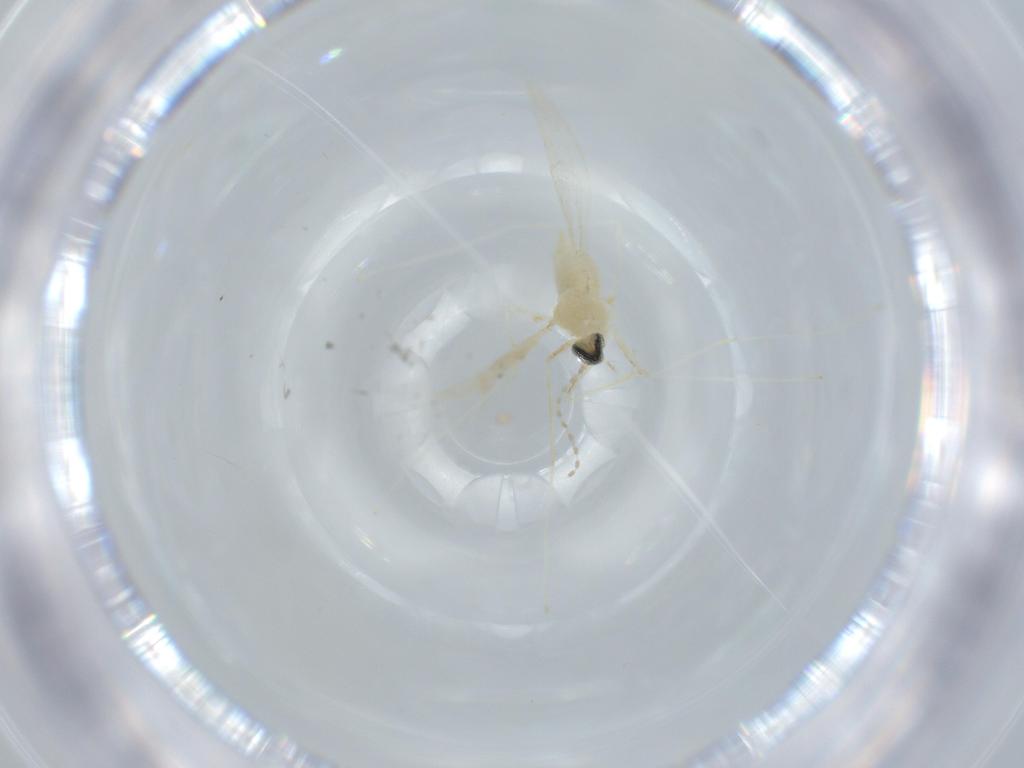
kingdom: Animalia
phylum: Arthropoda
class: Insecta
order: Diptera
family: Cecidomyiidae
